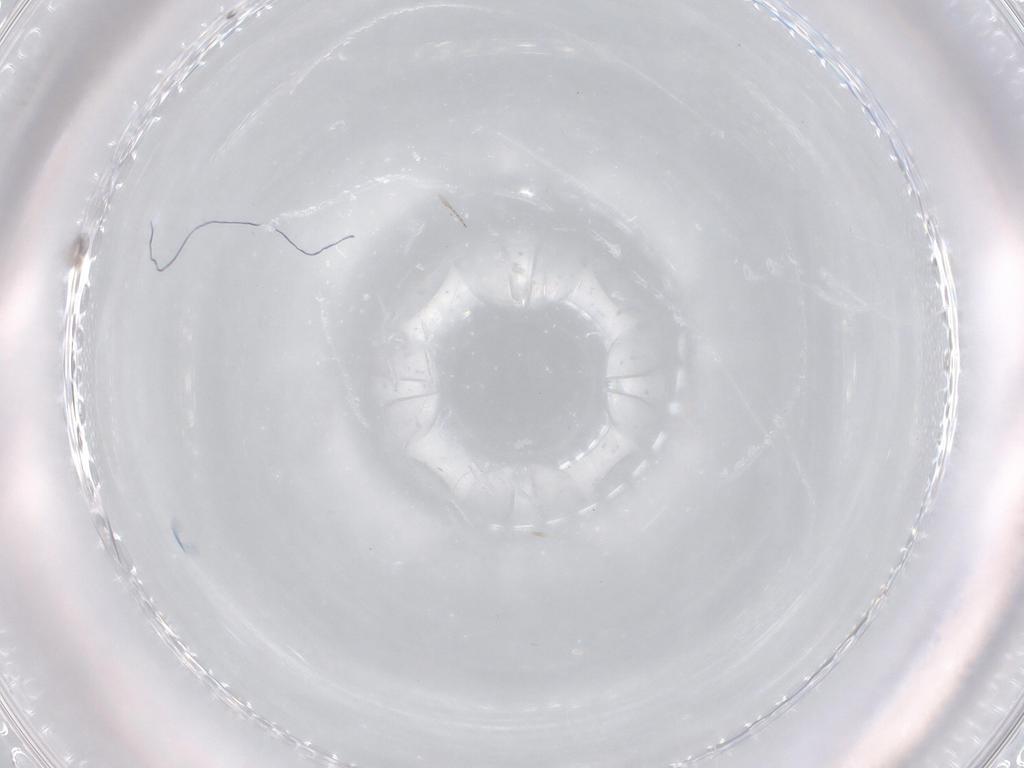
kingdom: Animalia
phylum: Arthropoda
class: Insecta
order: Diptera
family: Cecidomyiidae
